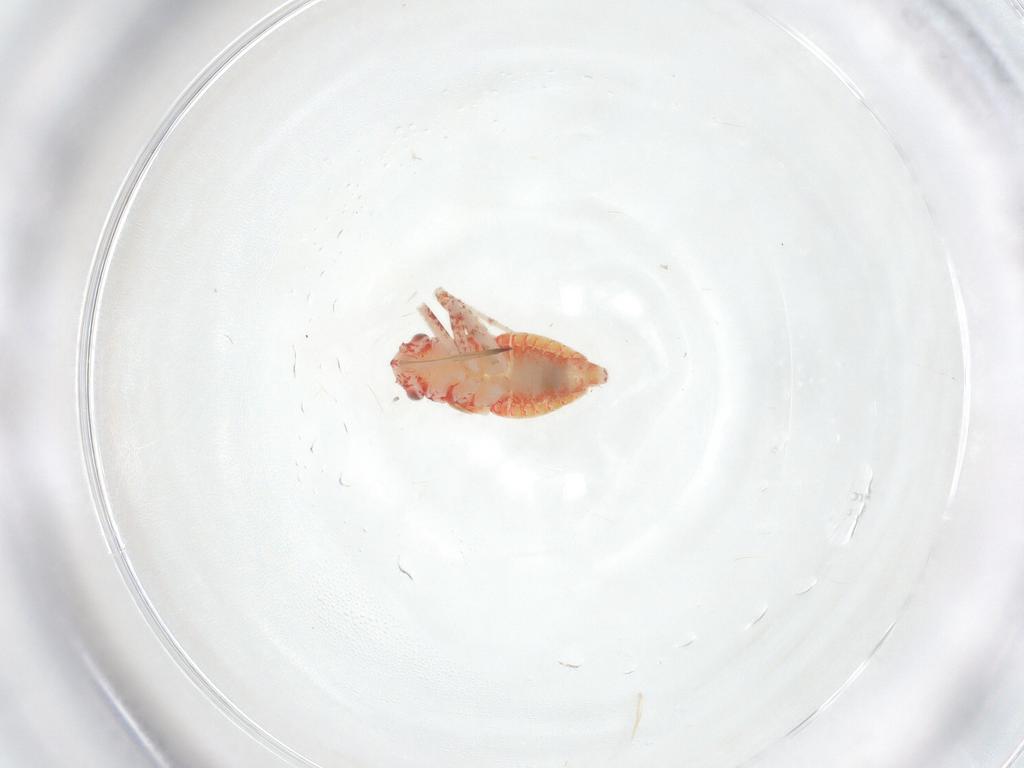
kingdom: Animalia
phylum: Arthropoda
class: Insecta
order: Hemiptera
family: Miridae
